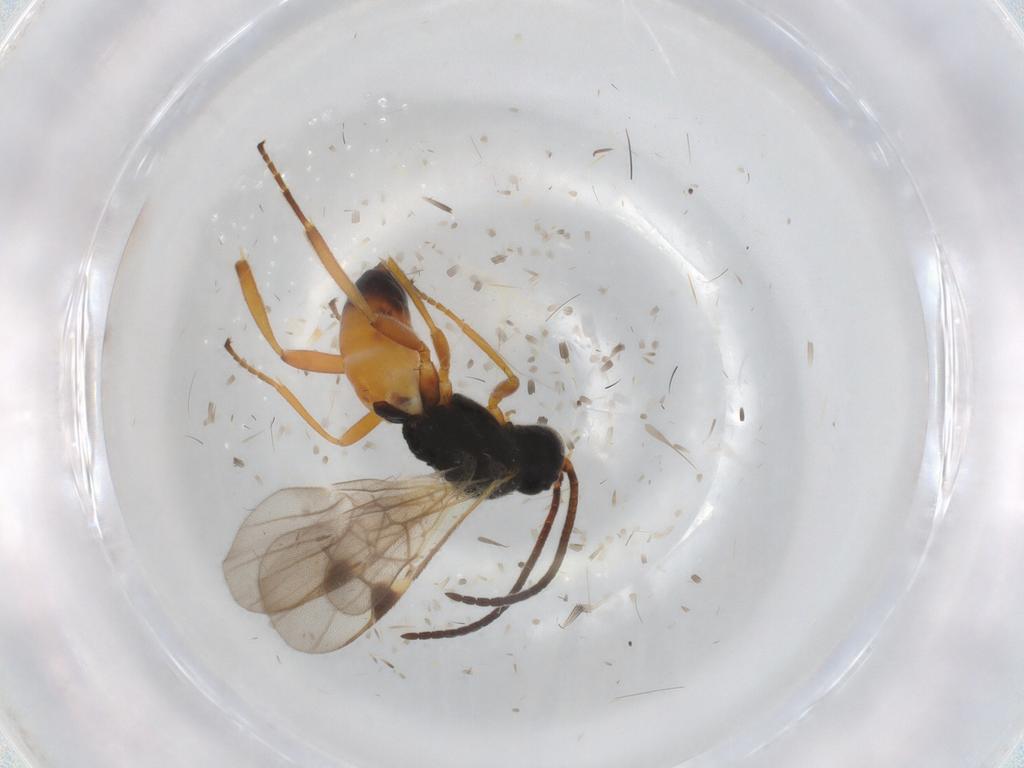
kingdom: Animalia
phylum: Arthropoda
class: Insecta
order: Hymenoptera
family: Braconidae
